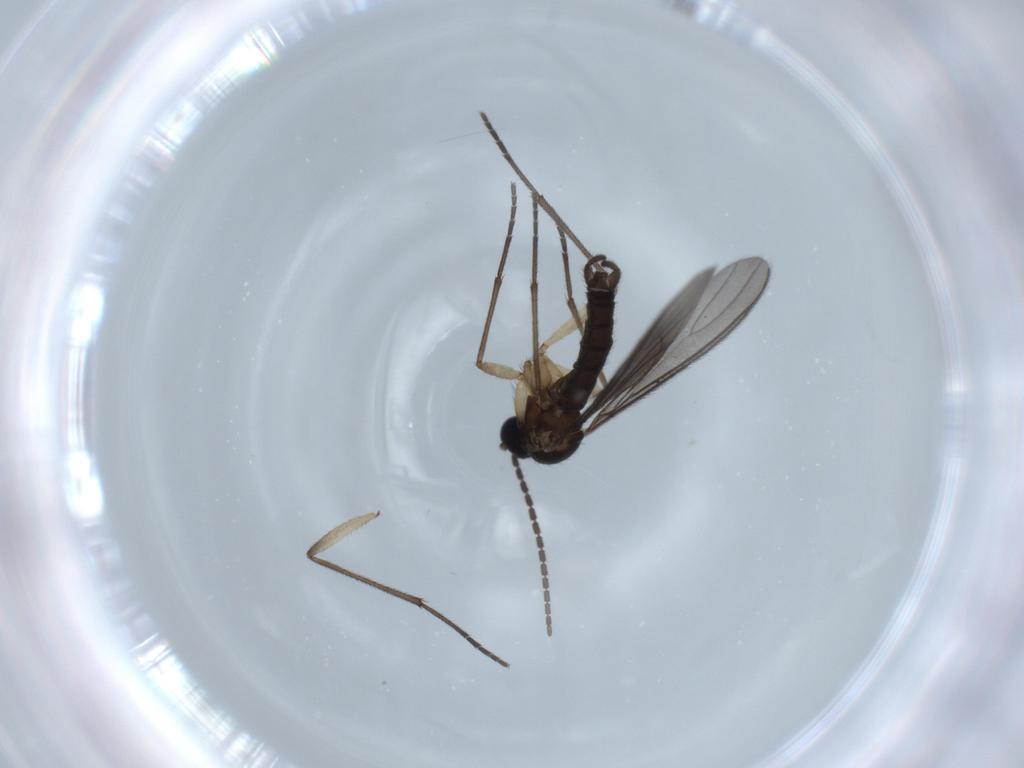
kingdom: Animalia
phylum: Arthropoda
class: Insecta
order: Diptera
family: Sciaridae
